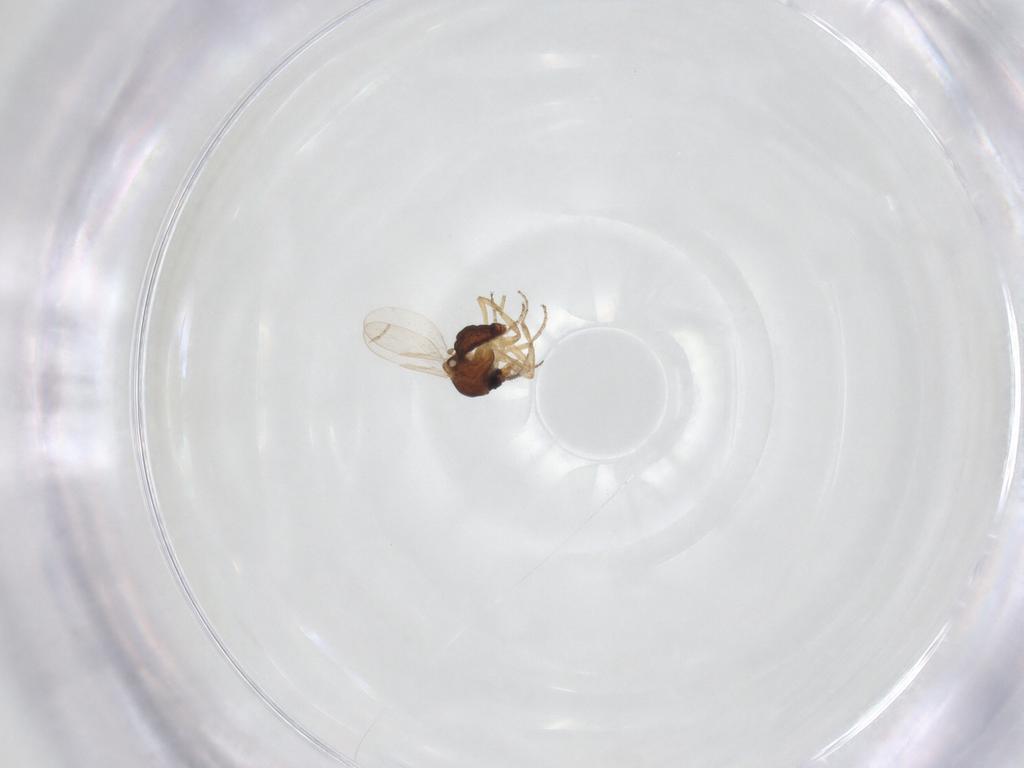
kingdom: Animalia
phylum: Arthropoda
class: Insecta
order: Diptera
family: Ceratopogonidae
